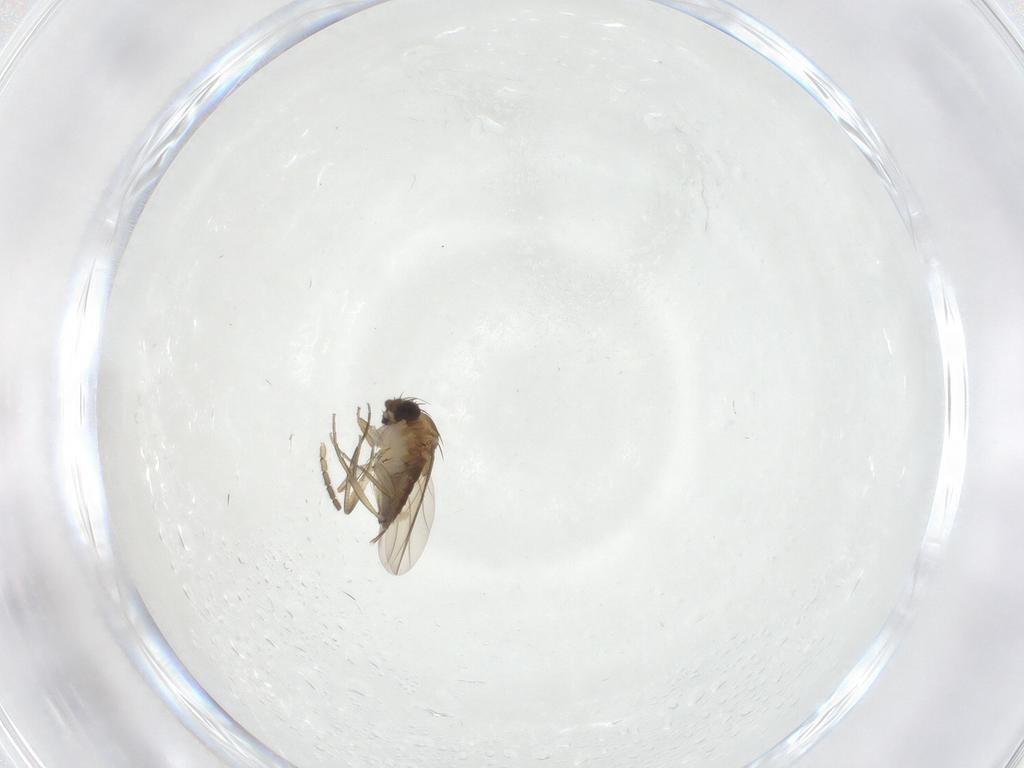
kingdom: Animalia
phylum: Arthropoda
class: Insecta
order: Diptera
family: Phoridae
